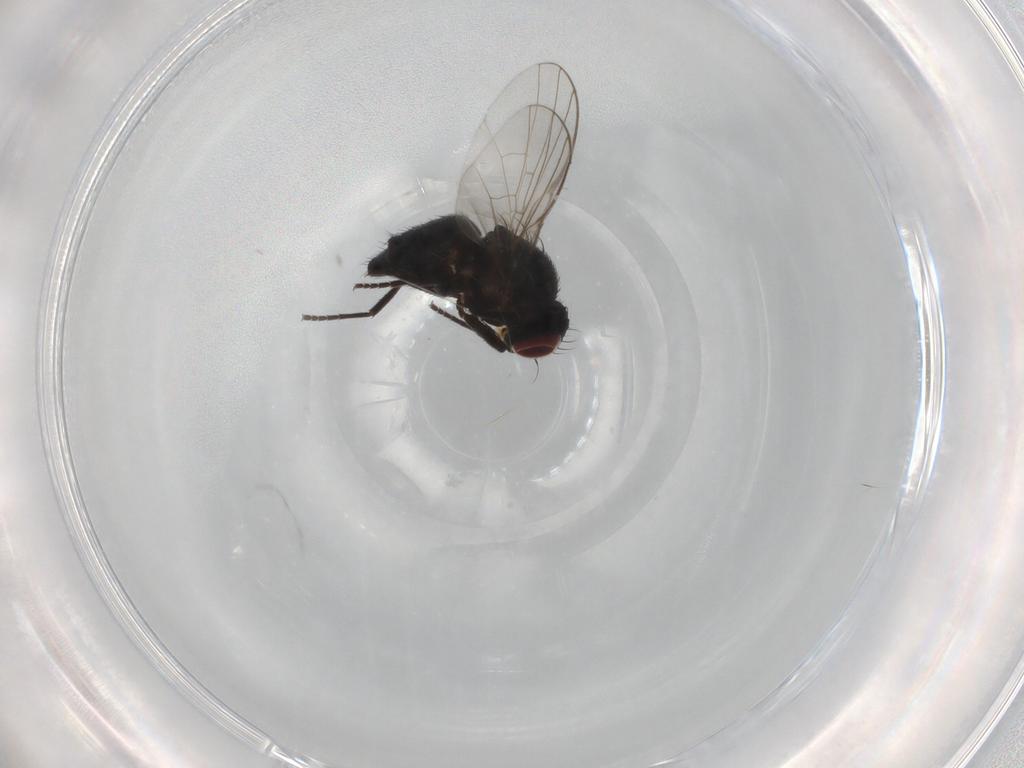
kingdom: Animalia
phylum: Arthropoda
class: Insecta
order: Diptera
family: Agromyzidae
